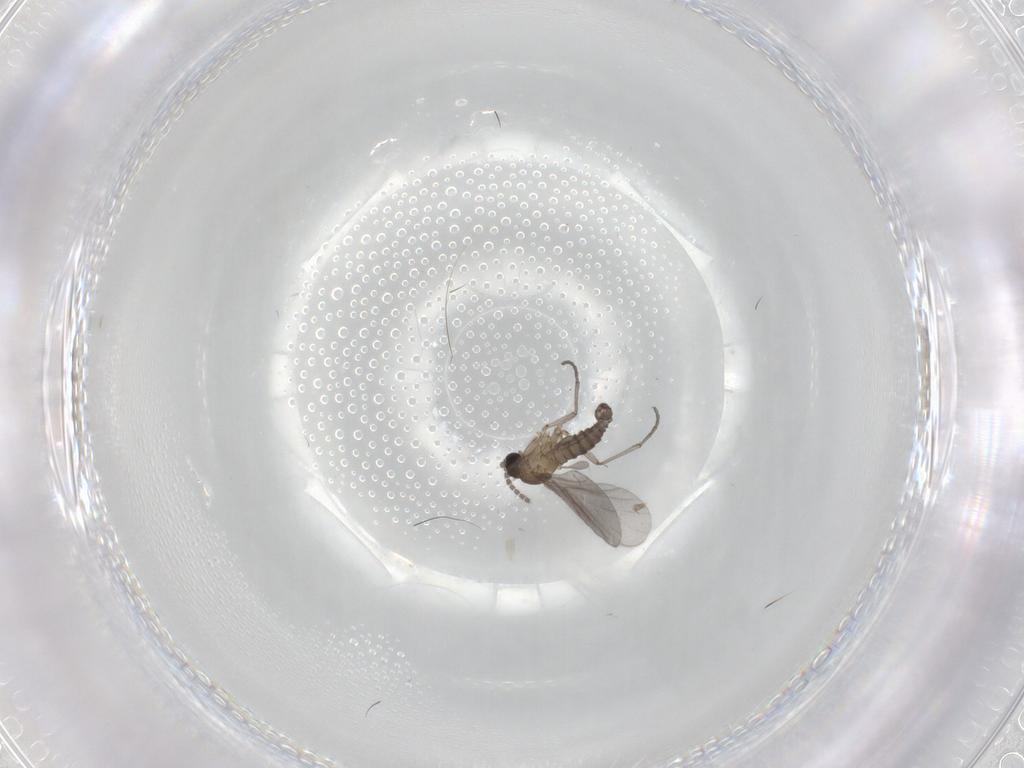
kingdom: Animalia
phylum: Arthropoda
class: Insecta
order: Diptera
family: Sciaridae
